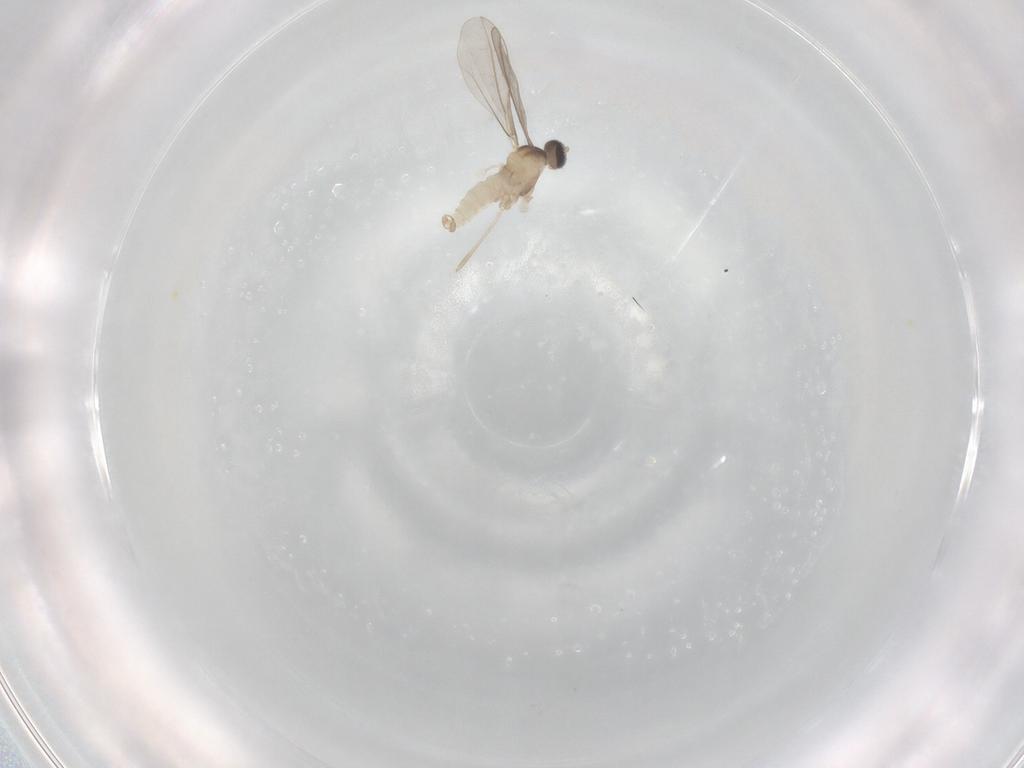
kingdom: Animalia
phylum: Arthropoda
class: Insecta
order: Diptera
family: Cecidomyiidae
